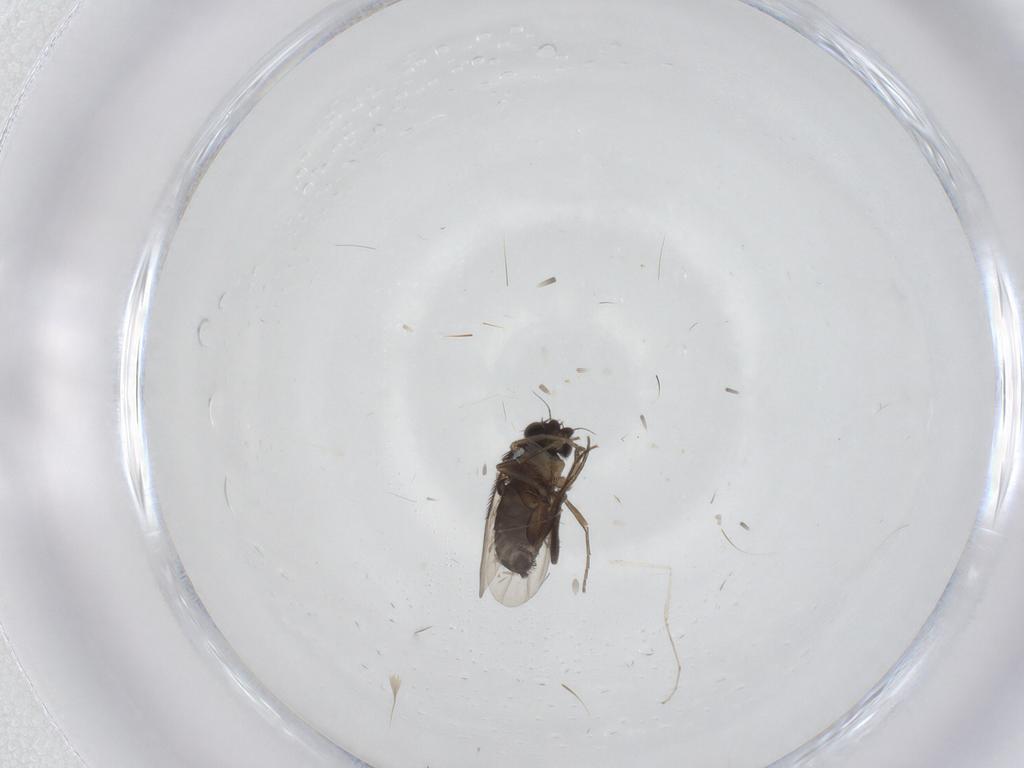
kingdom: Animalia
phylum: Arthropoda
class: Insecta
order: Diptera
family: Phoridae
